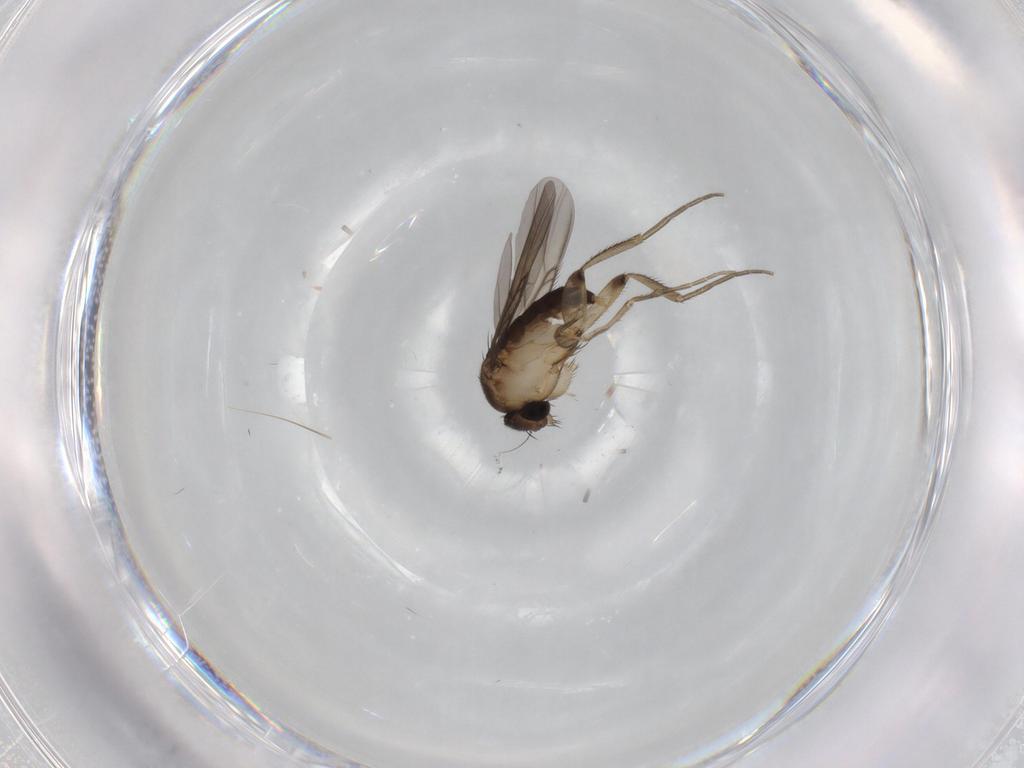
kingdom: Animalia
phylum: Arthropoda
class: Insecta
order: Diptera
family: Phoridae
